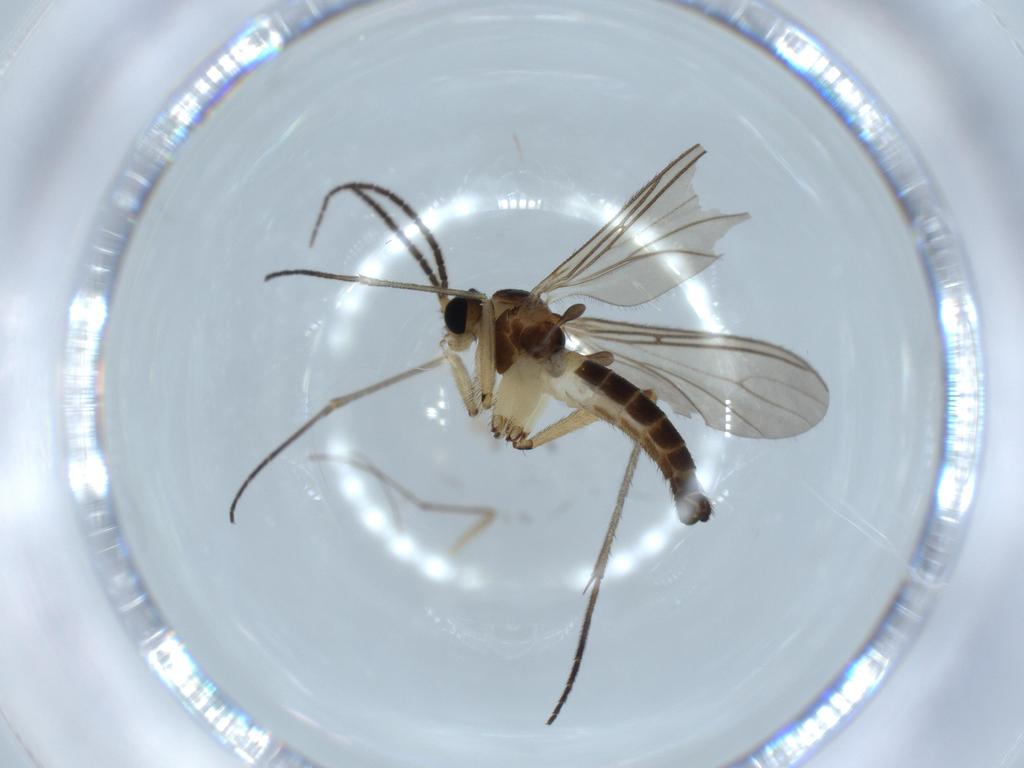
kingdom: Animalia
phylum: Arthropoda
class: Insecta
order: Diptera
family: Sciaridae
